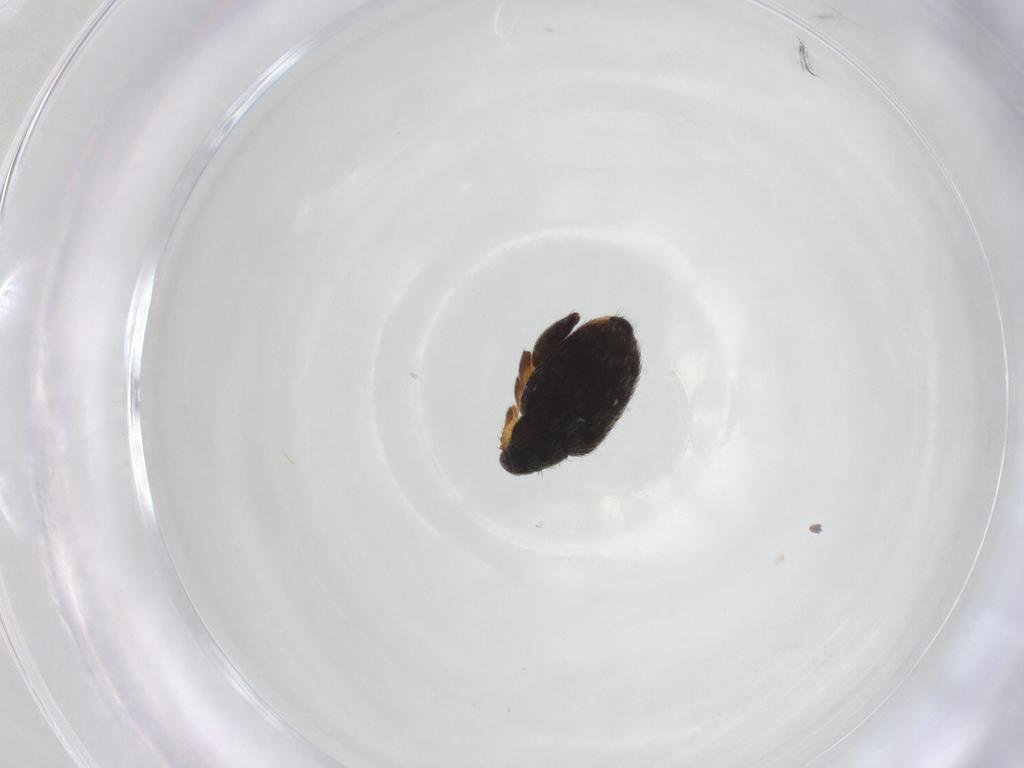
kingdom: Animalia
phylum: Arthropoda
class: Insecta
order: Coleoptera
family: Curculionidae
